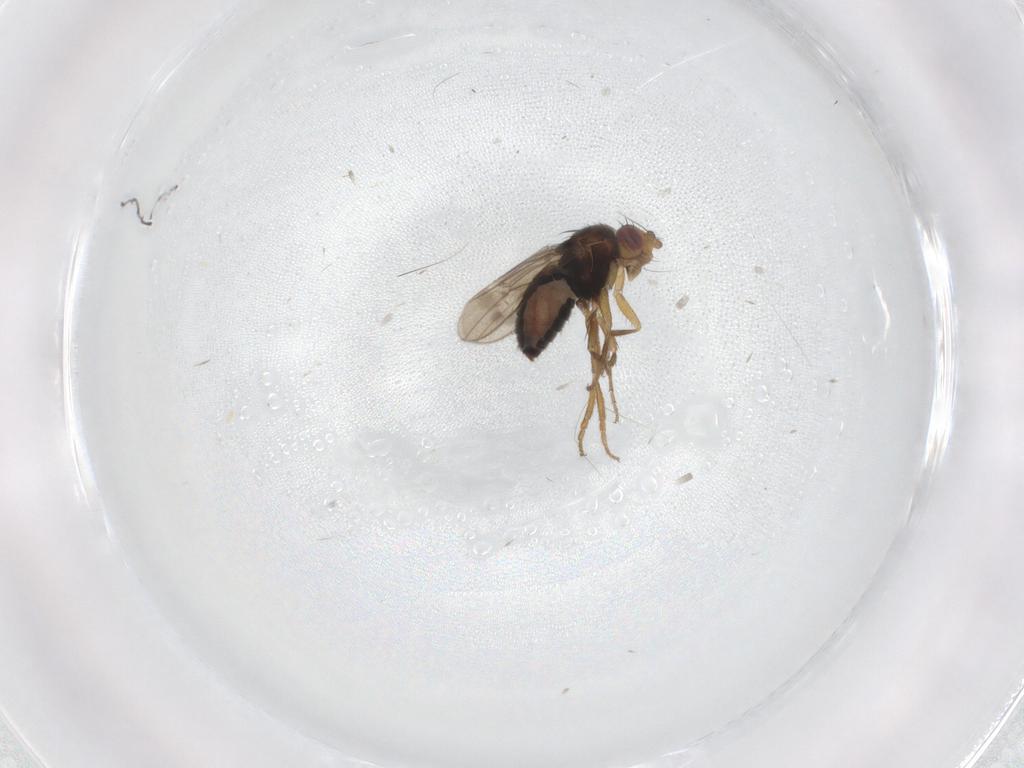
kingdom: Animalia
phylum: Arthropoda
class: Insecta
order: Diptera
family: Sphaeroceridae
